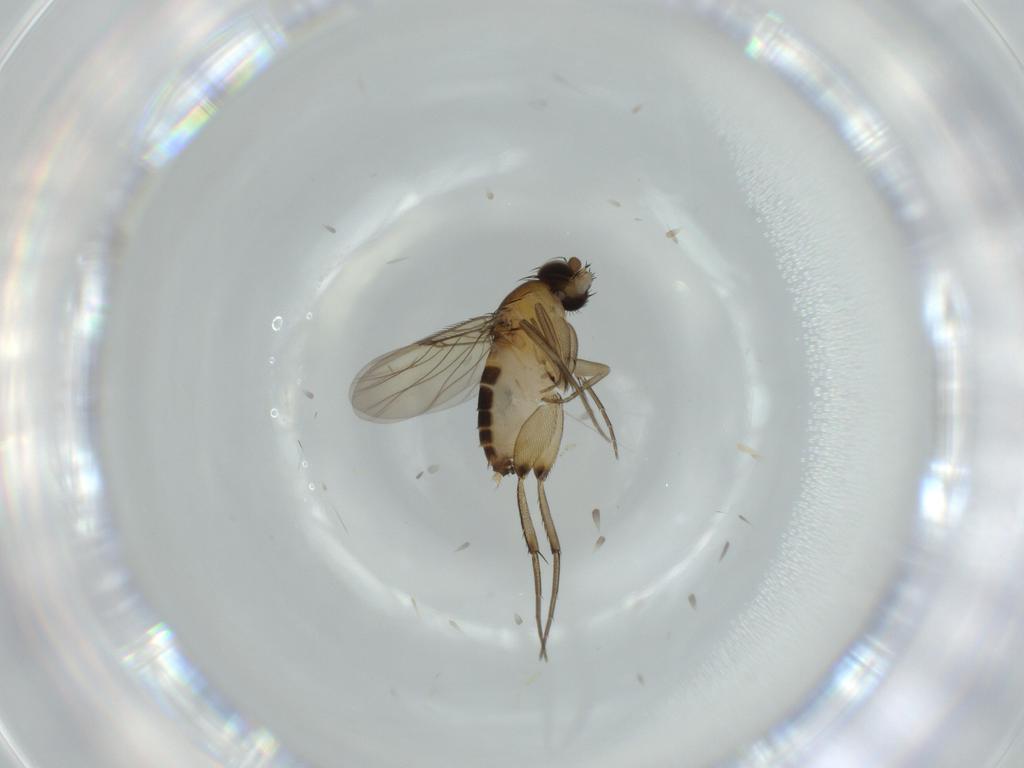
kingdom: Animalia
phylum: Arthropoda
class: Insecta
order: Diptera
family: Phoridae
